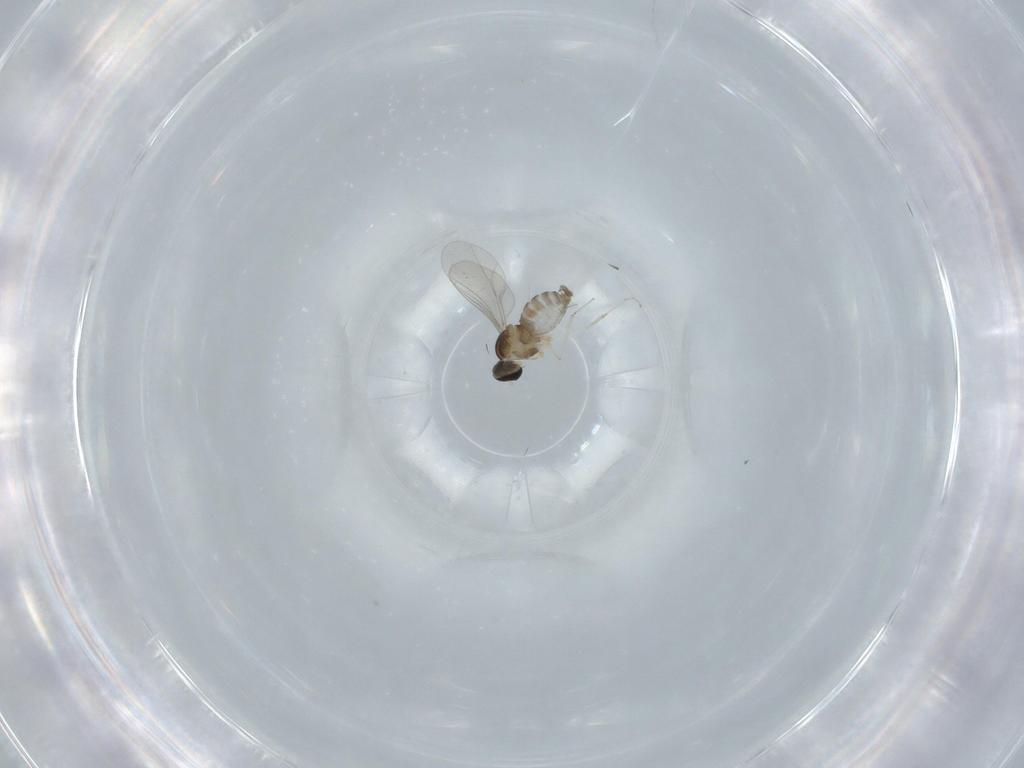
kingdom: Animalia
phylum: Arthropoda
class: Insecta
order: Diptera
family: Cecidomyiidae
